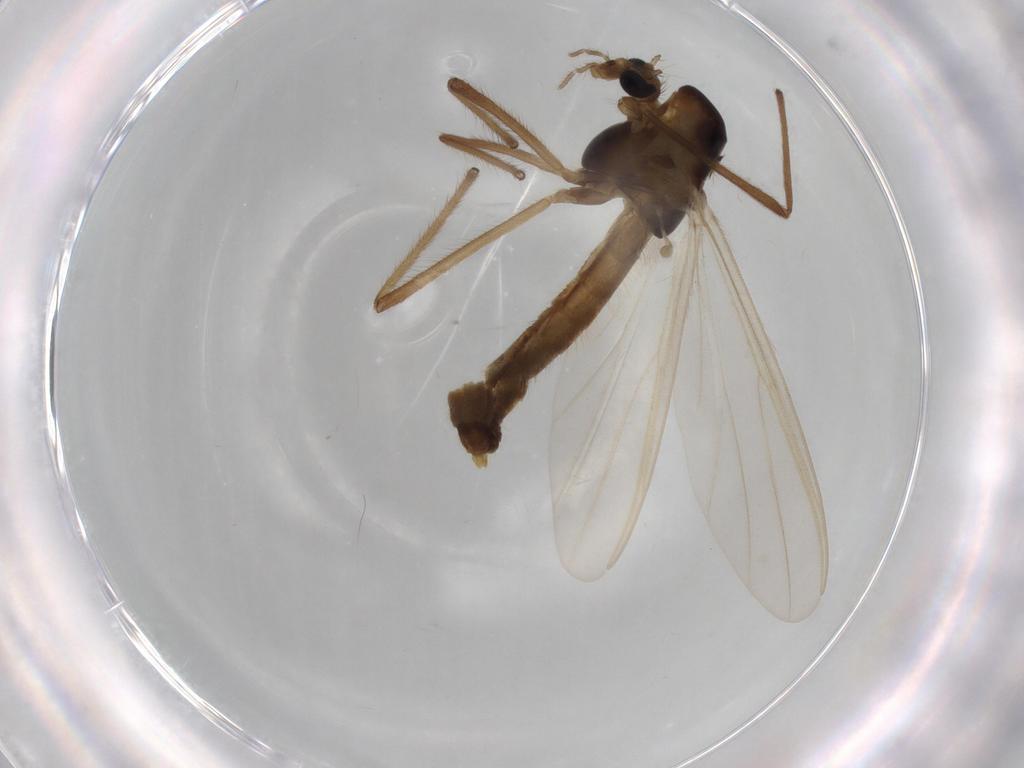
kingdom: Animalia
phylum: Arthropoda
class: Insecta
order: Diptera
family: Chironomidae
